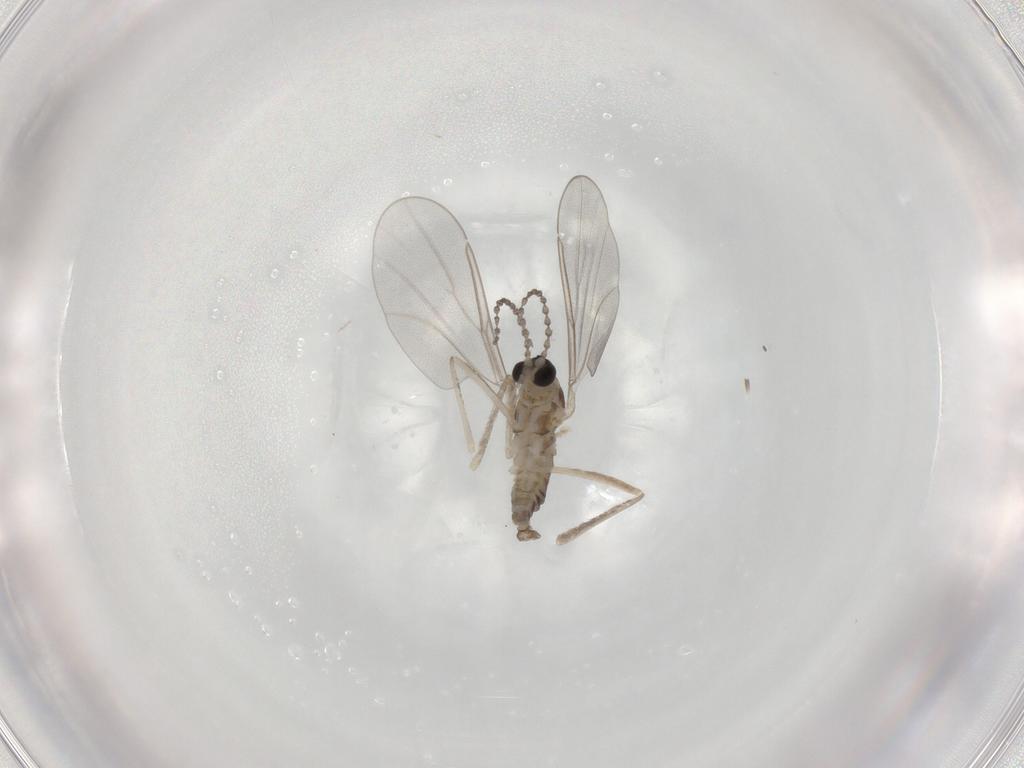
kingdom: Animalia
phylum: Arthropoda
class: Insecta
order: Diptera
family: Cecidomyiidae
